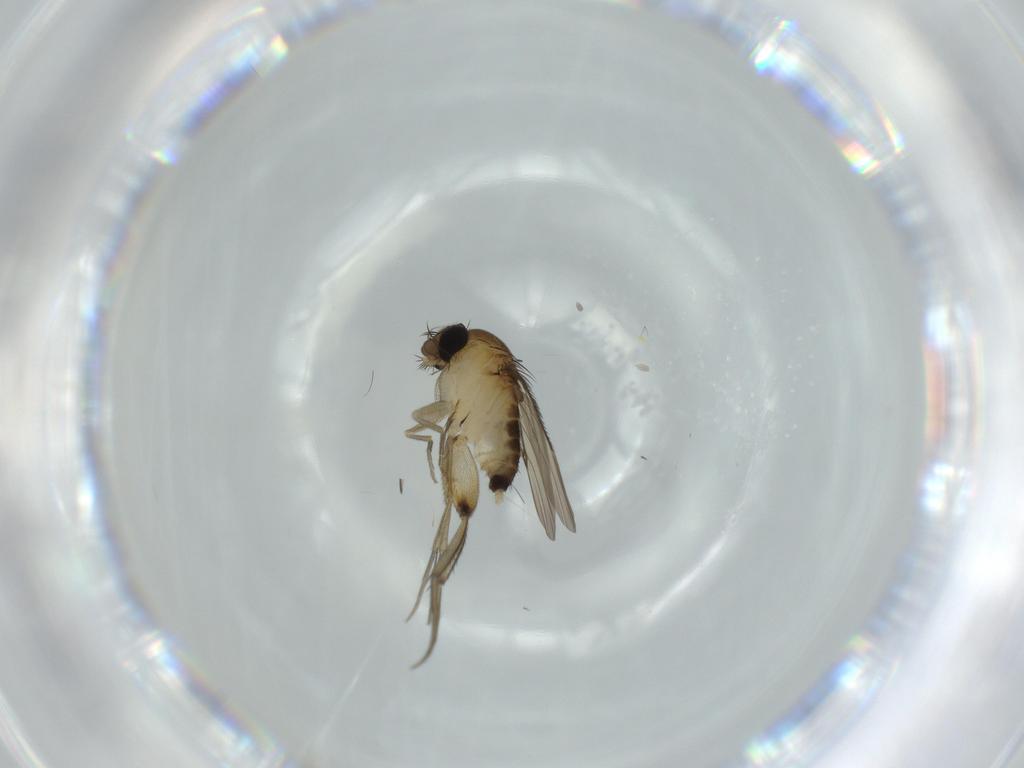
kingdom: Animalia
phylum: Arthropoda
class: Insecta
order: Diptera
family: Phoridae
